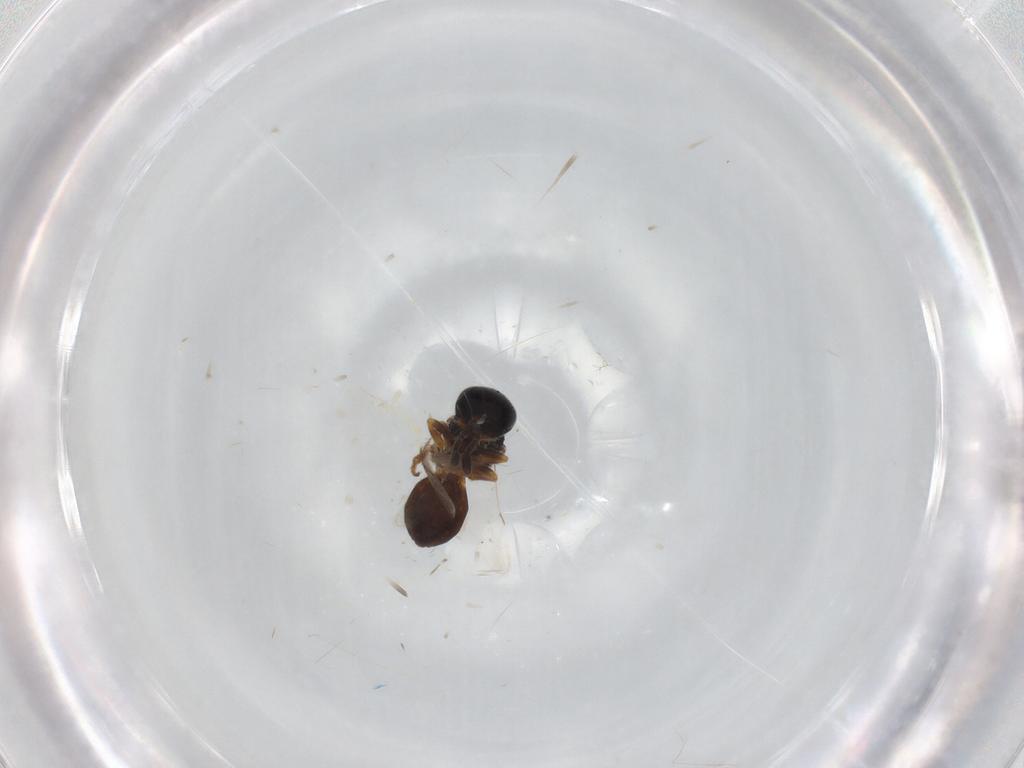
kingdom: Animalia
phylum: Arthropoda
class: Insecta
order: Hymenoptera
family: Scelionidae
